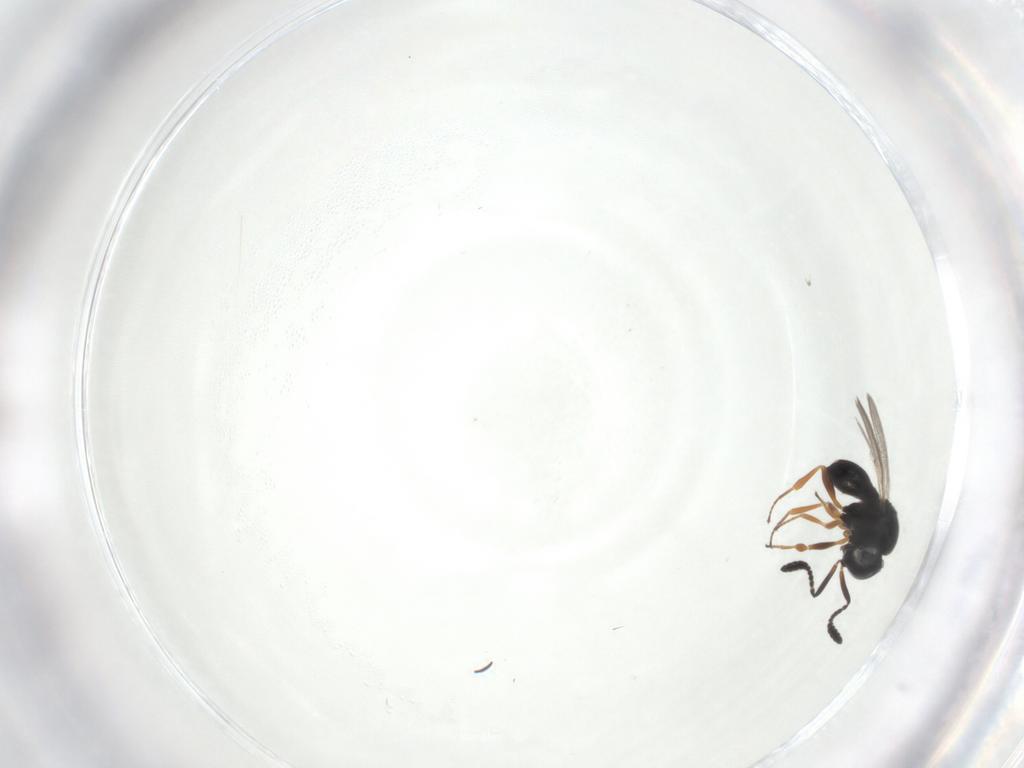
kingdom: Animalia
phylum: Arthropoda
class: Insecta
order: Hymenoptera
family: Scelionidae
